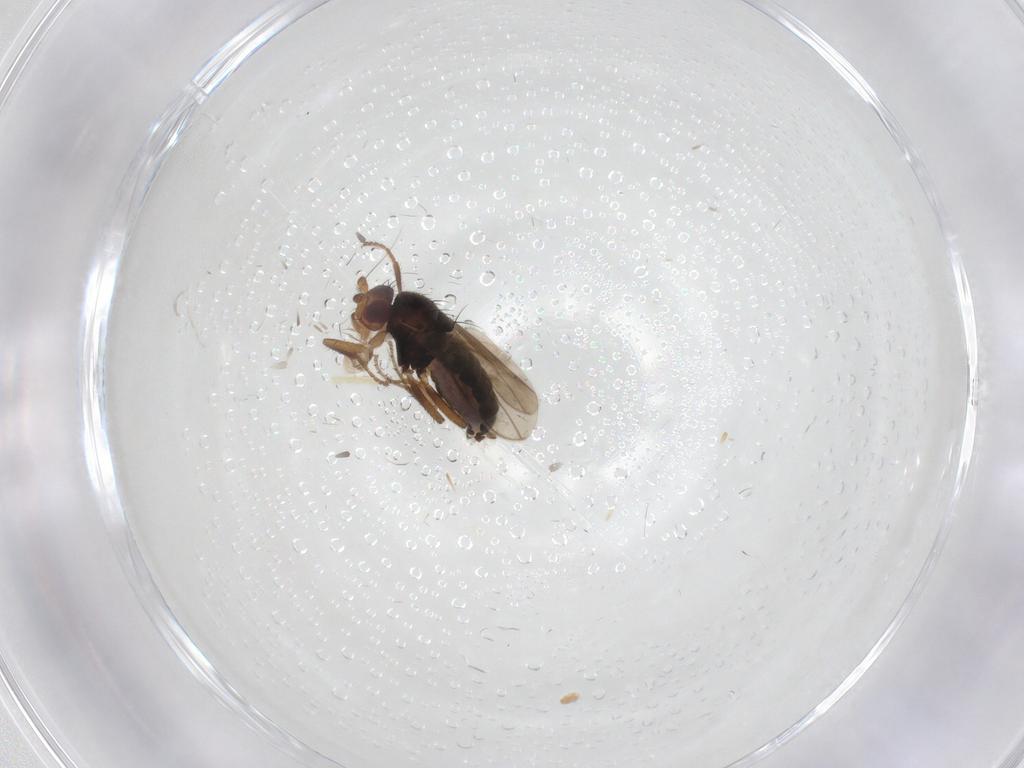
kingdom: Animalia
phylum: Arthropoda
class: Insecta
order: Diptera
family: Sphaeroceridae
